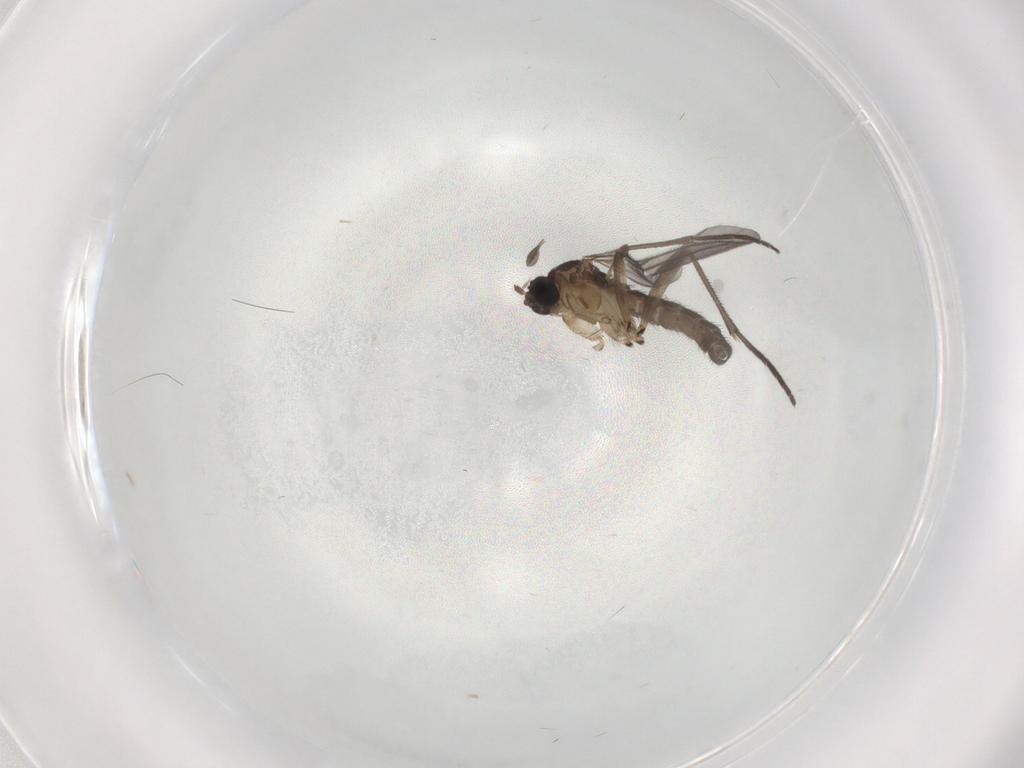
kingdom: Animalia
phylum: Arthropoda
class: Insecta
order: Diptera
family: Sciaridae
